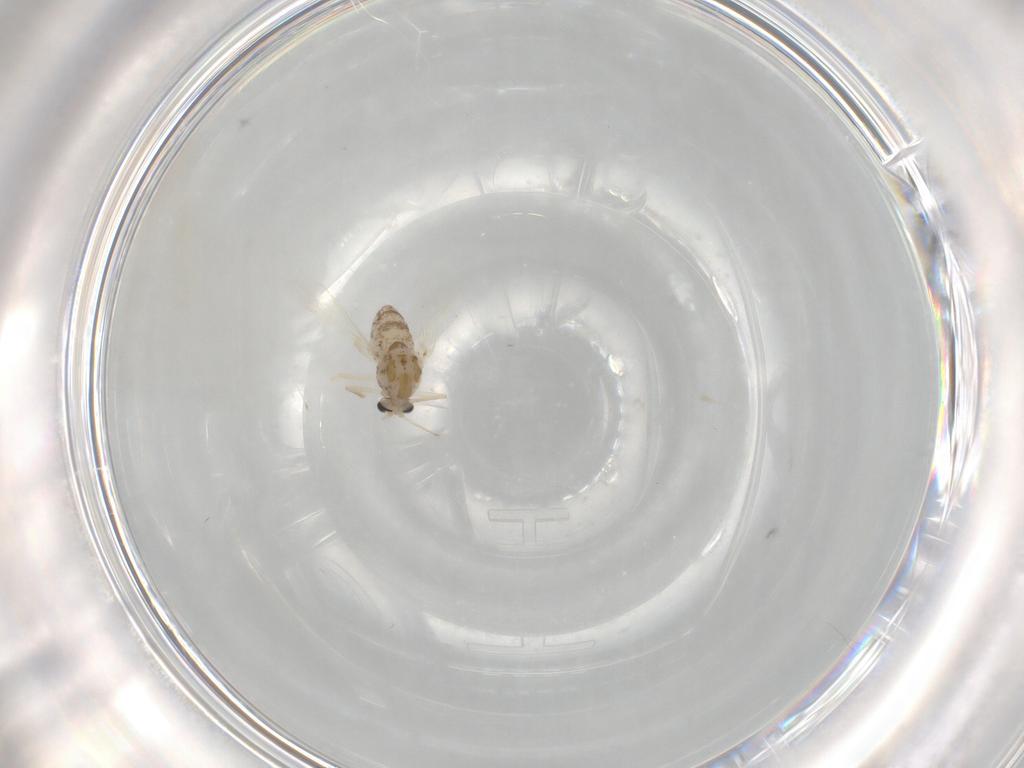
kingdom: Animalia
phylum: Arthropoda
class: Insecta
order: Diptera
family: Chironomidae
